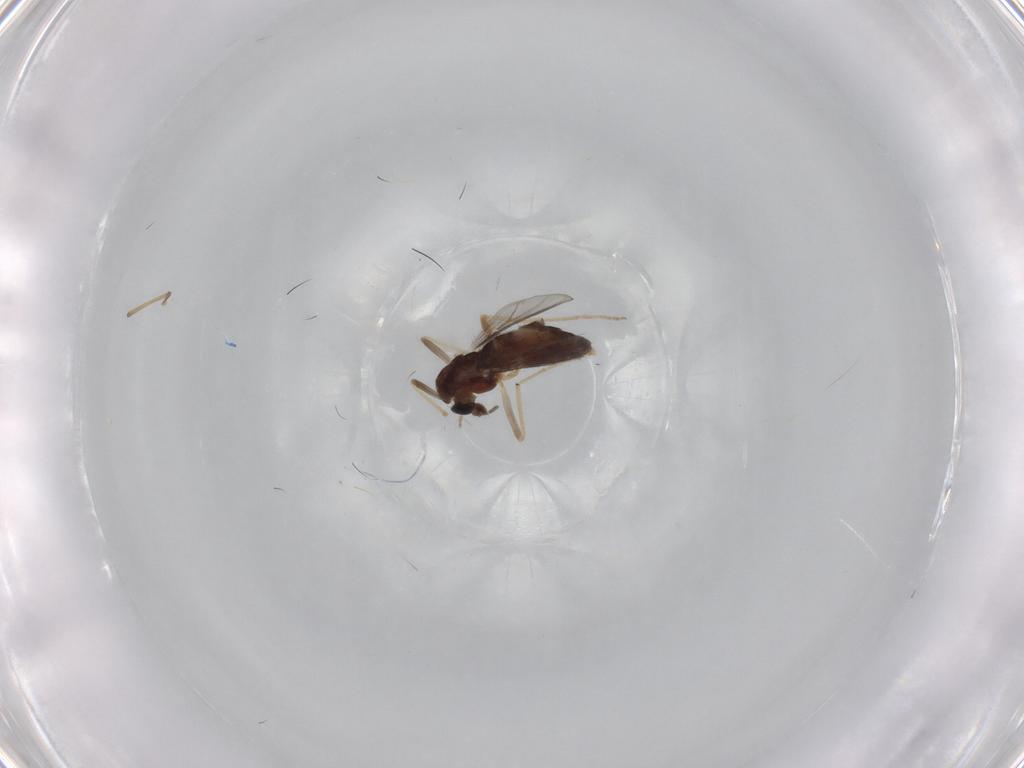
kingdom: Animalia
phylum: Arthropoda
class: Insecta
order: Diptera
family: Chironomidae
